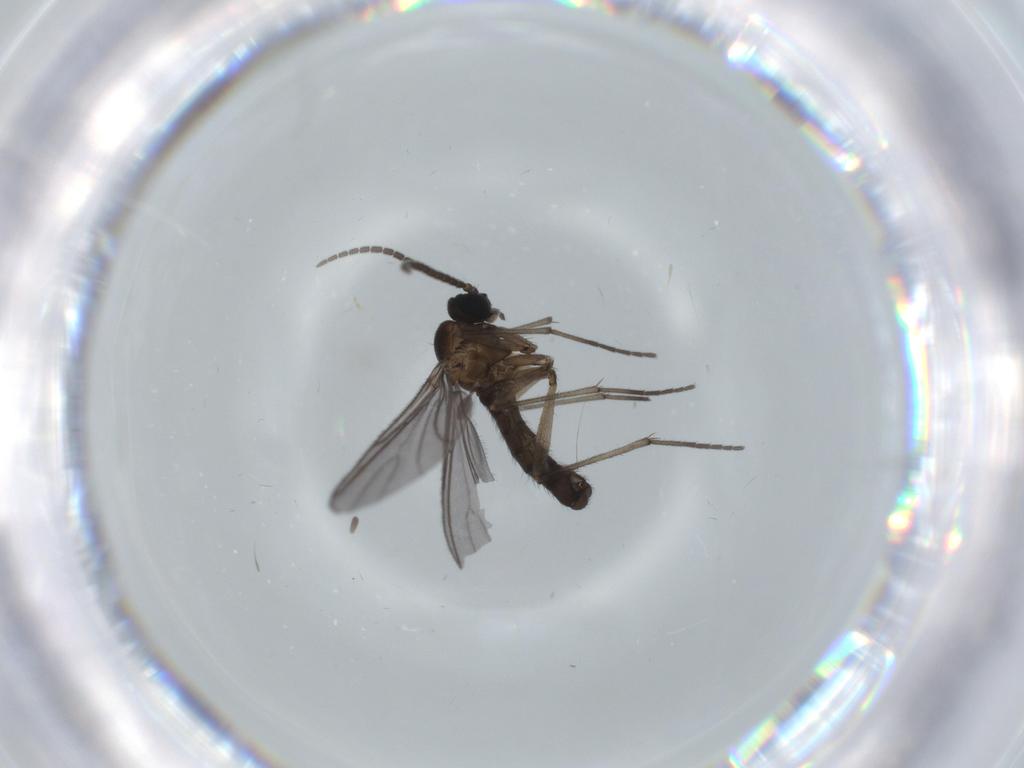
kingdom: Animalia
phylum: Arthropoda
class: Insecta
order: Diptera
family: Sciaridae
